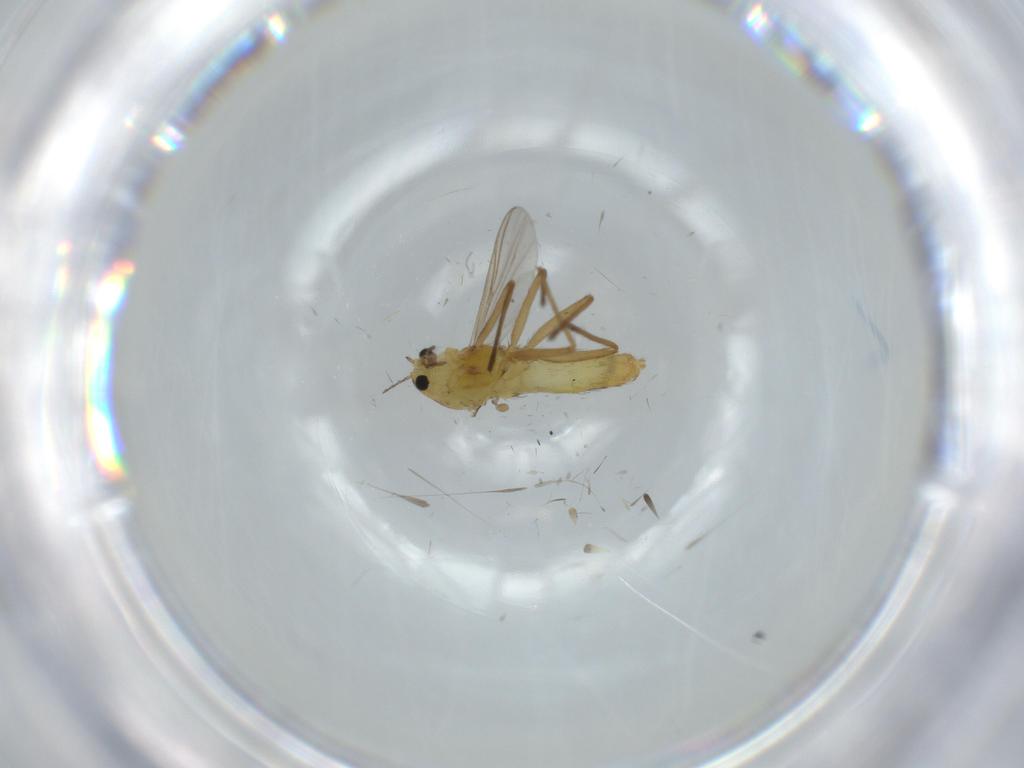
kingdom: Animalia
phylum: Arthropoda
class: Insecta
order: Diptera
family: Chironomidae
